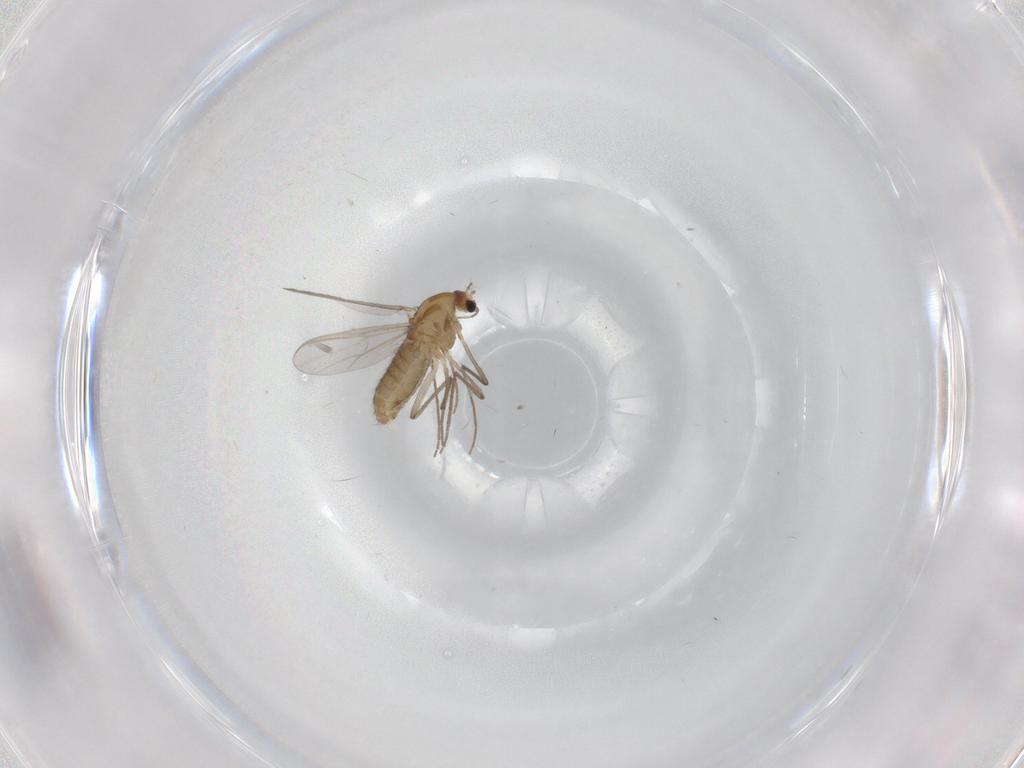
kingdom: Animalia
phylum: Arthropoda
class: Insecta
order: Diptera
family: Chironomidae
